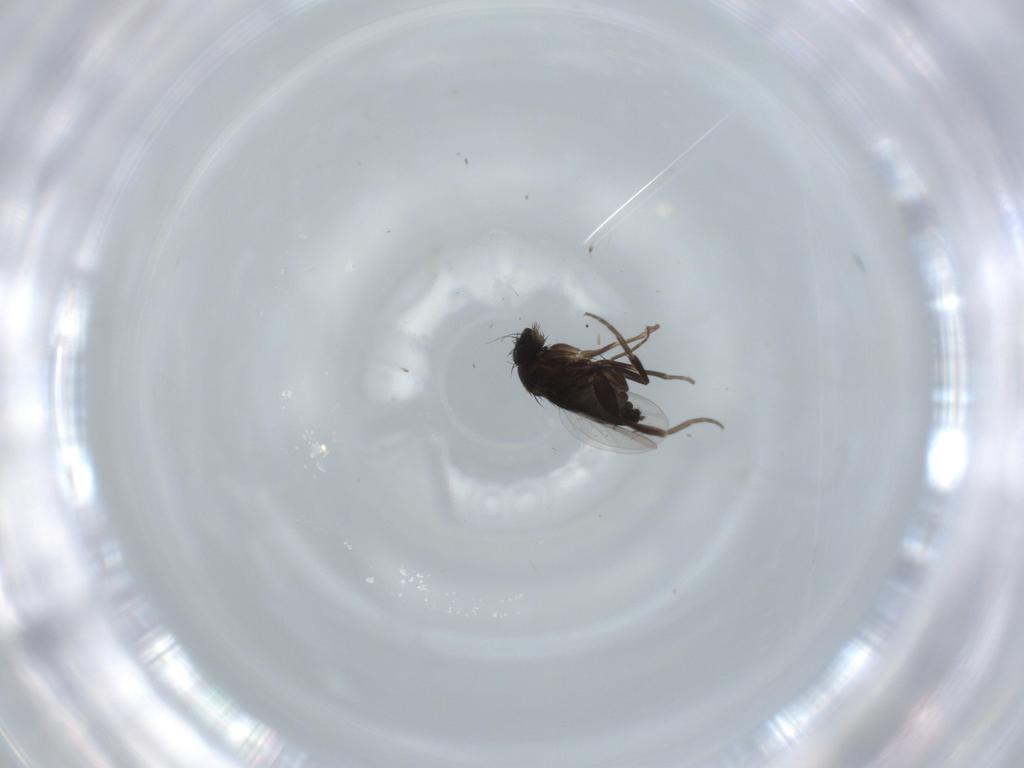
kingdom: Animalia
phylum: Arthropoda
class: Insecta
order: Diptera
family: Phoridae
